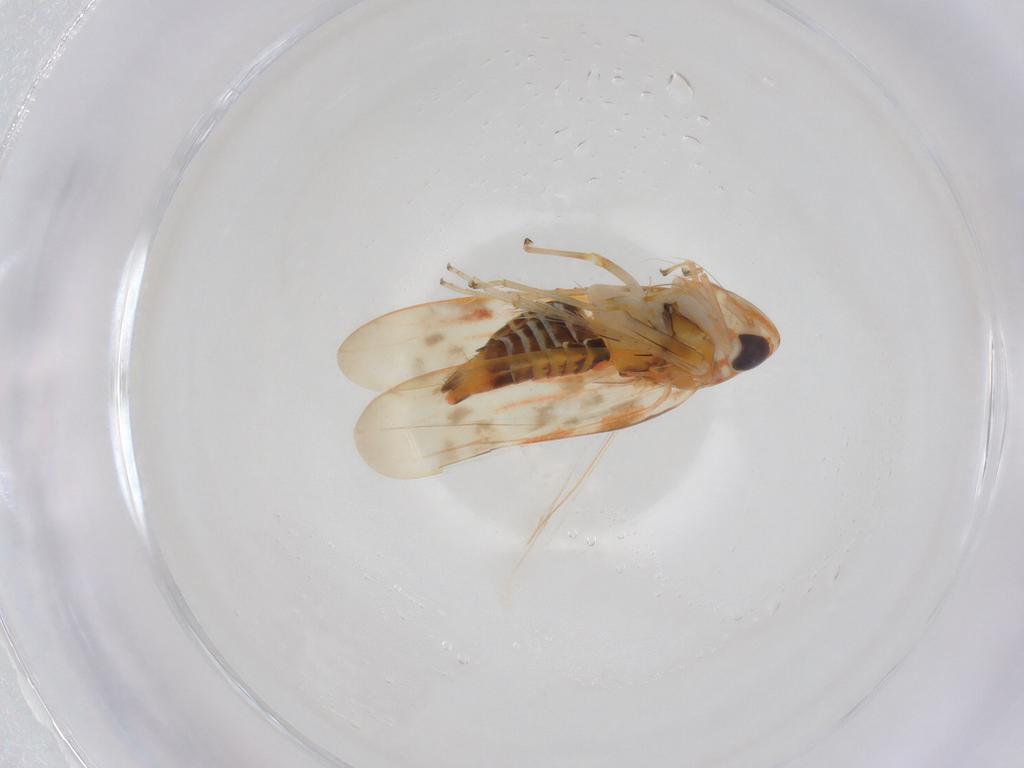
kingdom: Animalia
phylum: Arthropoda
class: Insecta
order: Hemiptera
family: Cicadellidae
